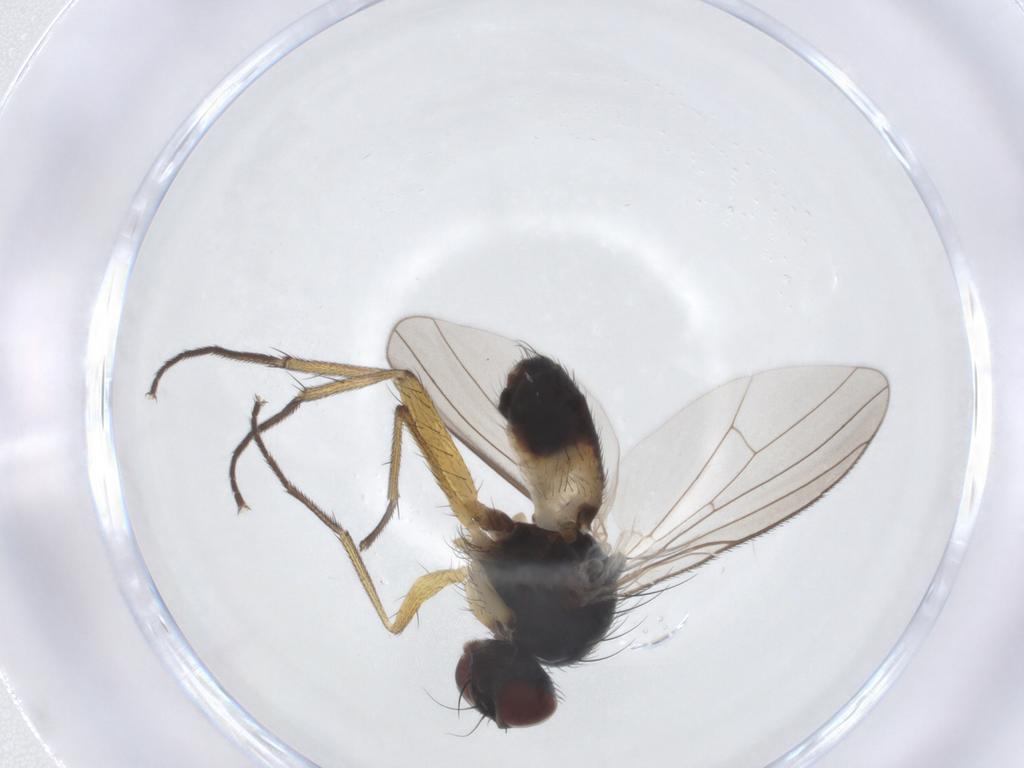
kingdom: Animalia
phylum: Arthropoda
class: Insecta
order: Diptera
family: Muscidae
